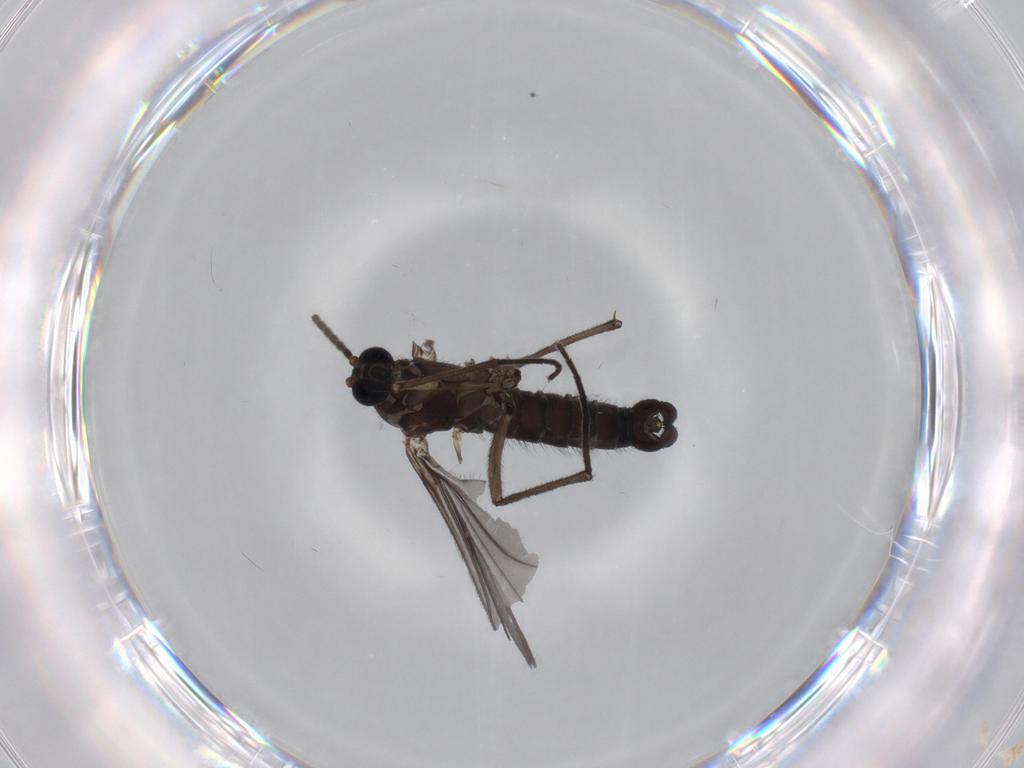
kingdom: Animalia
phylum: Arthropoda
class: Insecta
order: Diptera
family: Sciaridae
